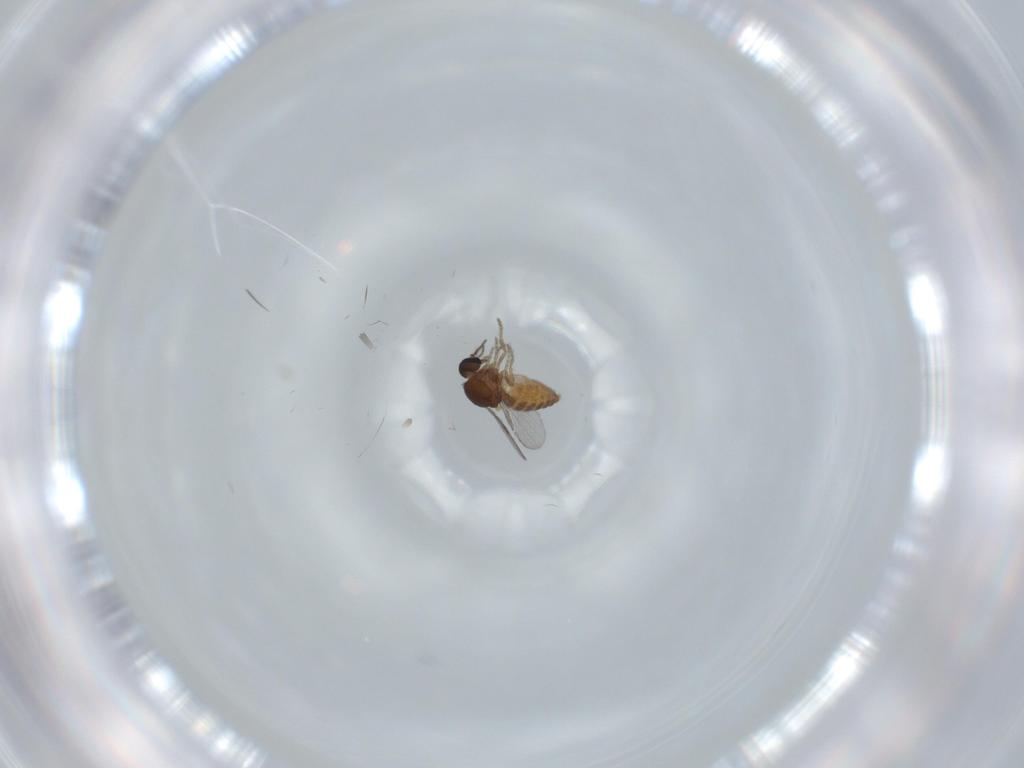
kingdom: Animalia
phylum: Arthropoda
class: Insecta
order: Diptera
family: Ceratopogonidae
